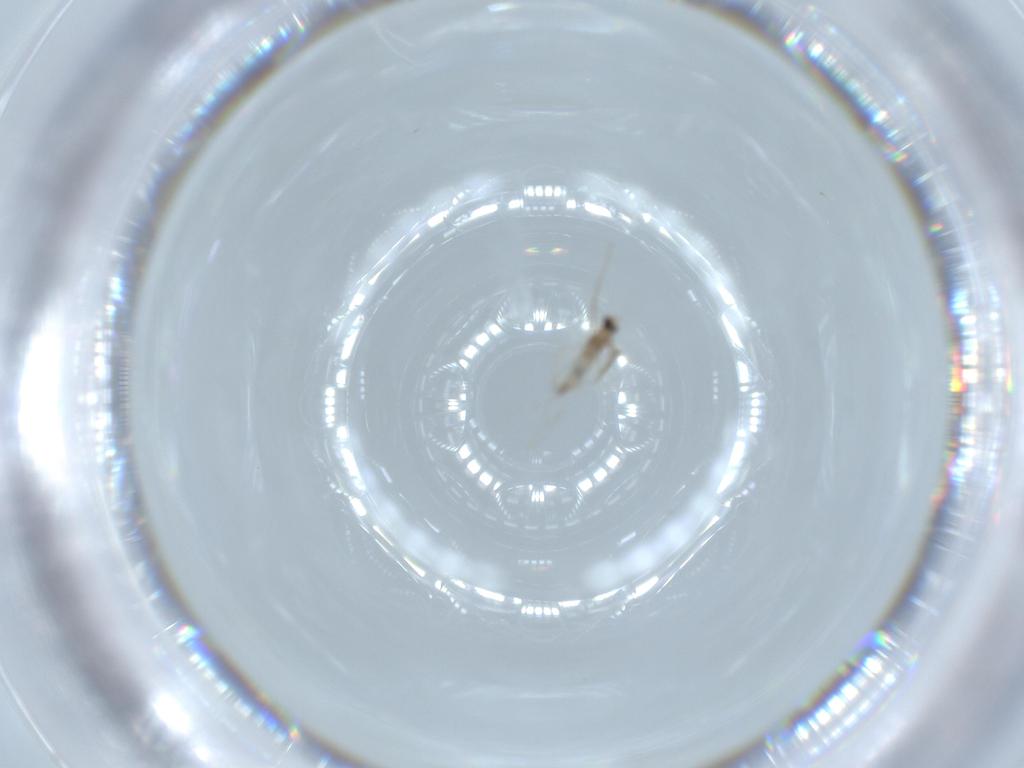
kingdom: Animalia
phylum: Arthropoda
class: Insecta
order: Diptera
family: Cecidomyiidae
